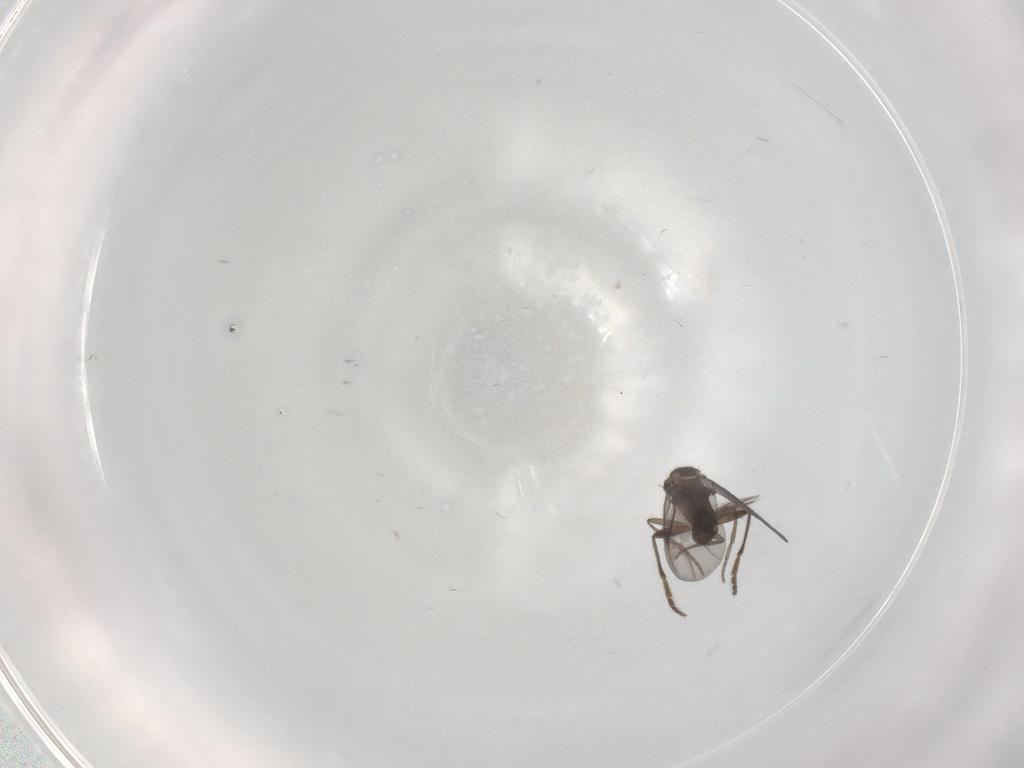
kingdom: Animalia
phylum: Arthropoda
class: Insecta
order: Diptera
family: Phoridae
